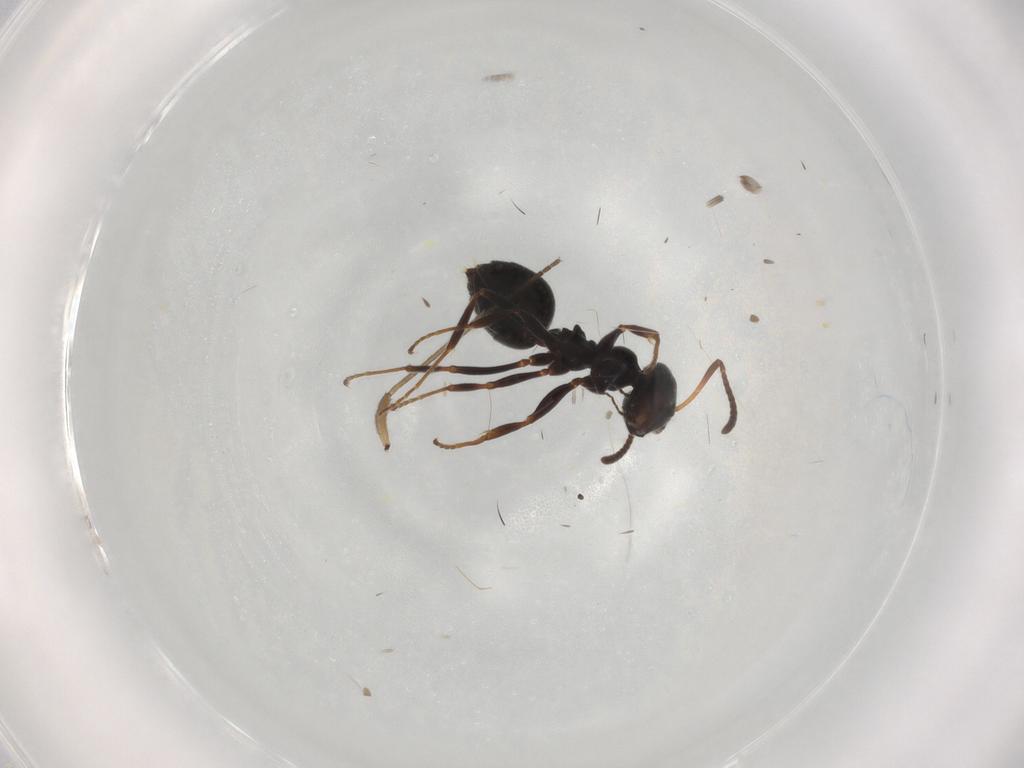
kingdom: Animalia
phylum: Arthropoda
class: Insecta
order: Hymenoptera
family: Formicidae
